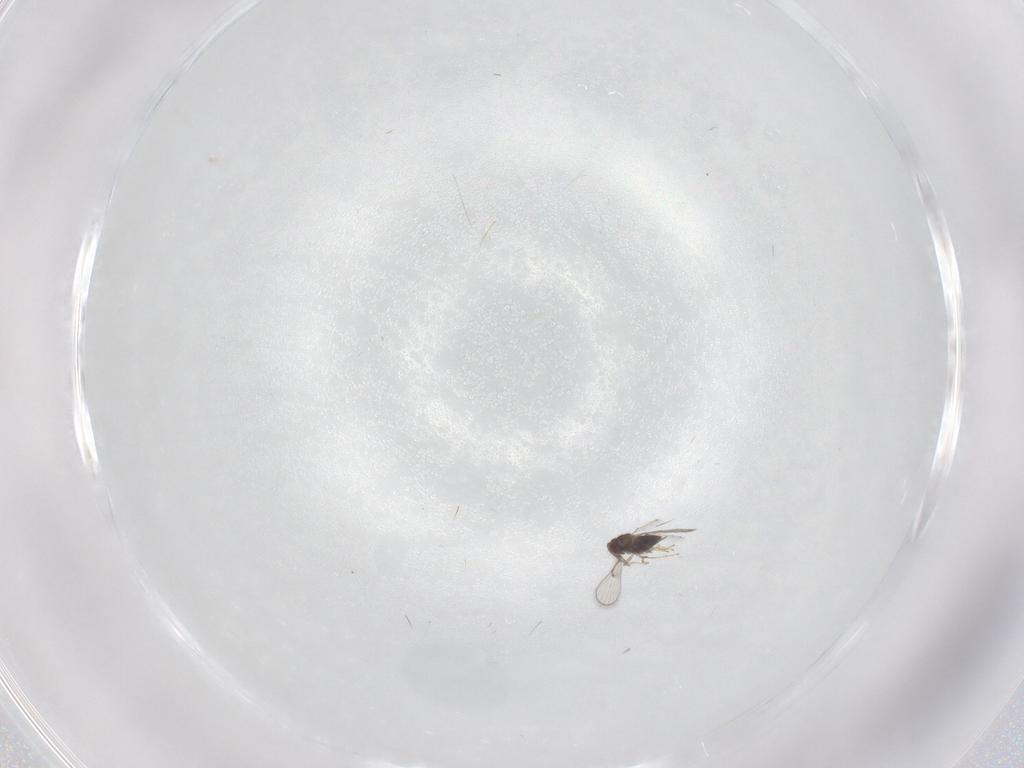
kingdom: Animalia
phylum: Arthropoda
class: Insecta
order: Hymenoptera
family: Trichogrammatidae
